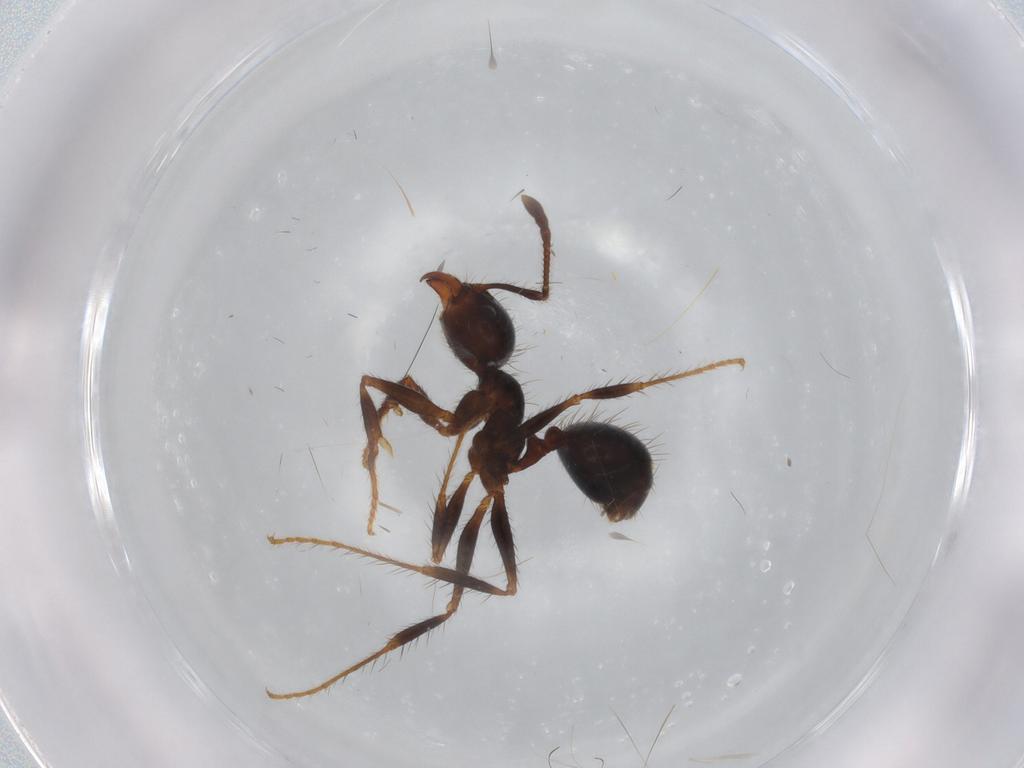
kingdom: Animalia
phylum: Arthropoda
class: Insecta
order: Hymenoptera
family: Formicidae
